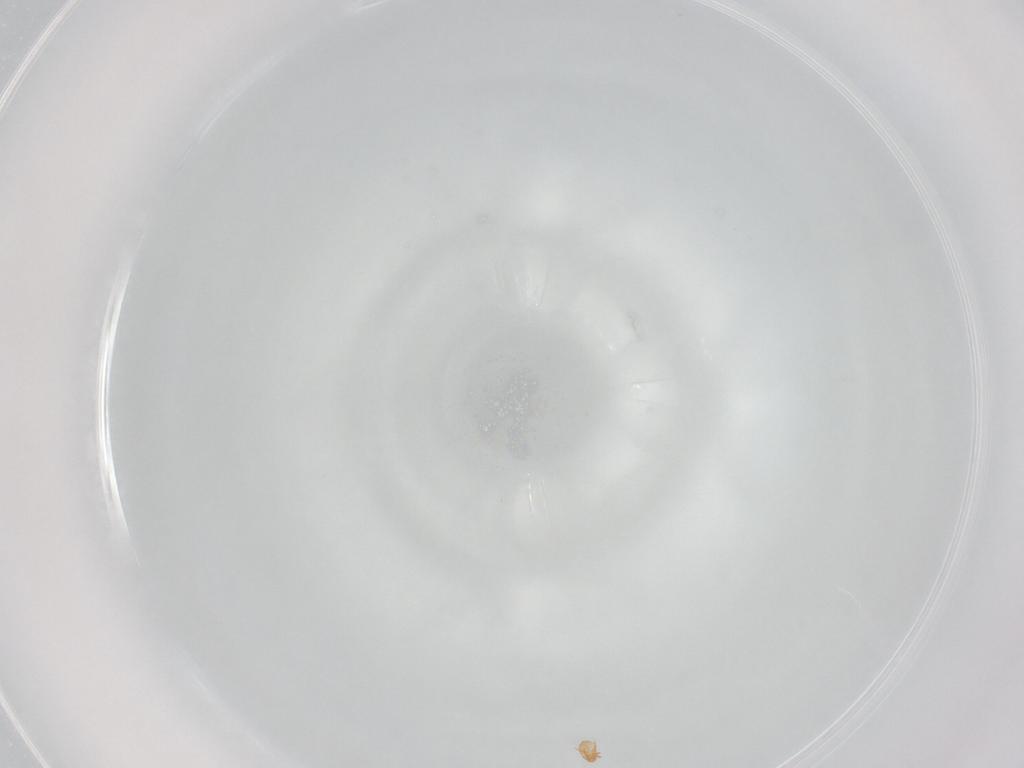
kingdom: Animalia
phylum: Arthropoda
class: Arachnida
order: Sarcoptiformes
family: Brachychthoniidae
